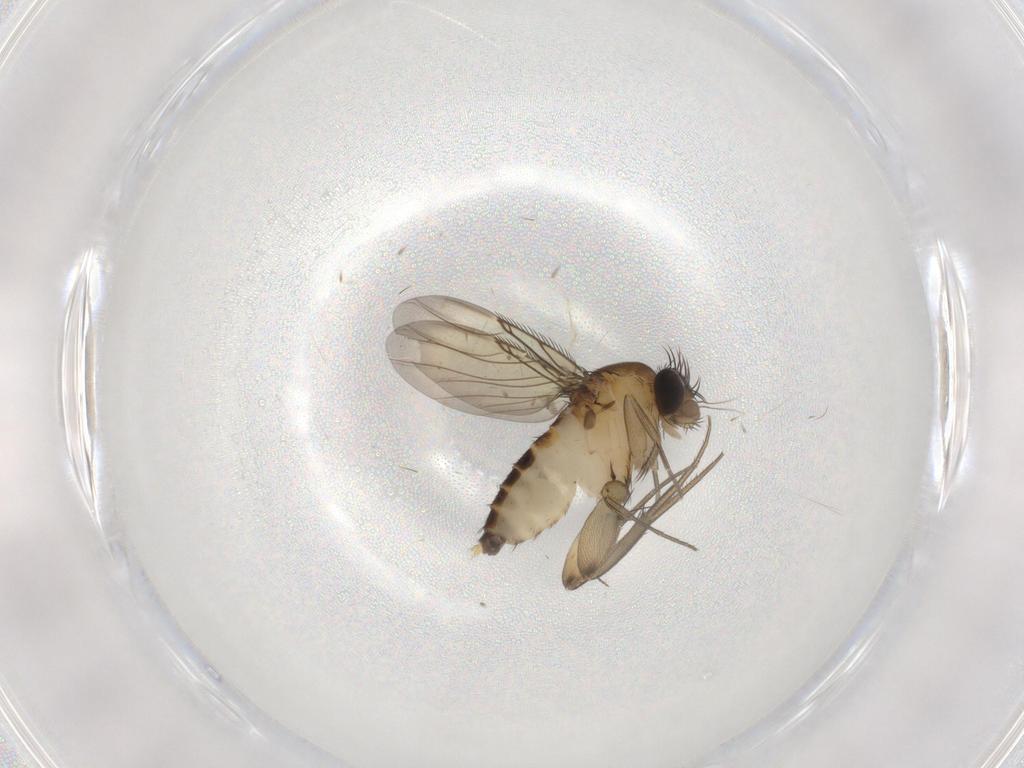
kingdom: Animalia
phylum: Arthropoda
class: Insecta
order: Diptera
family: Phoridae
